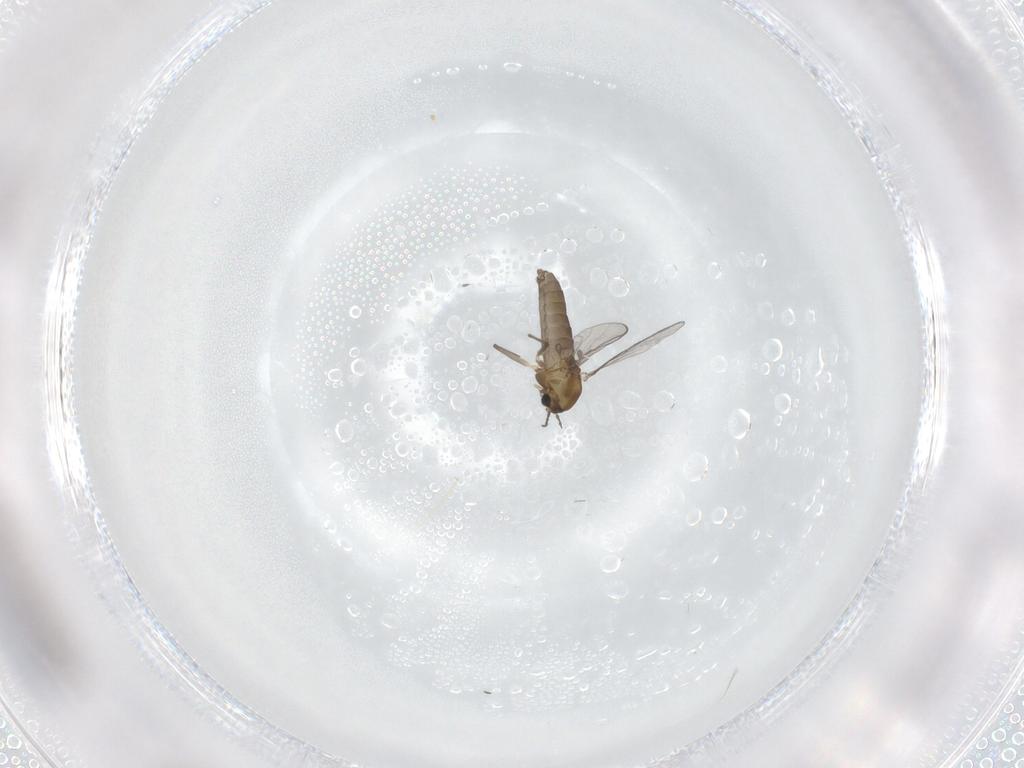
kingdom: Animalia
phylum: Arthropoda
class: Insecta
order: Diptera
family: Chironomidae
